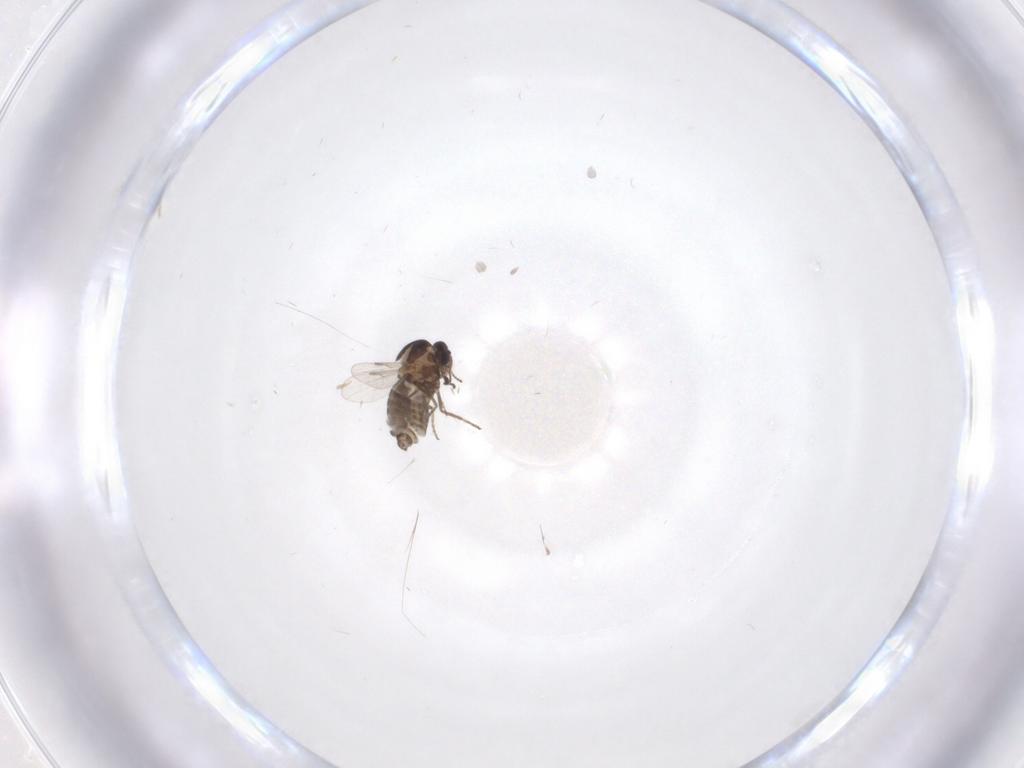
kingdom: Animalia
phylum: Arthropoda
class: Insecta
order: Diptera
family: Ceratopogonidae
